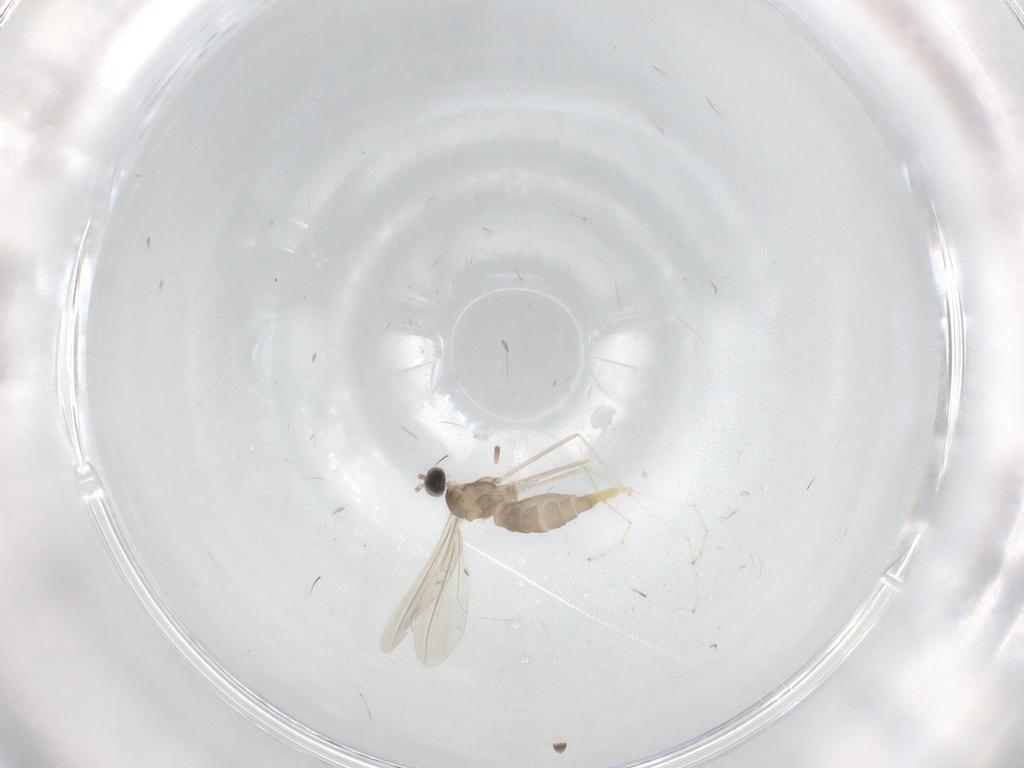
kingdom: Animalia
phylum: Arthropoda
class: Insecta
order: Diptera
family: Cecidomyiidae
